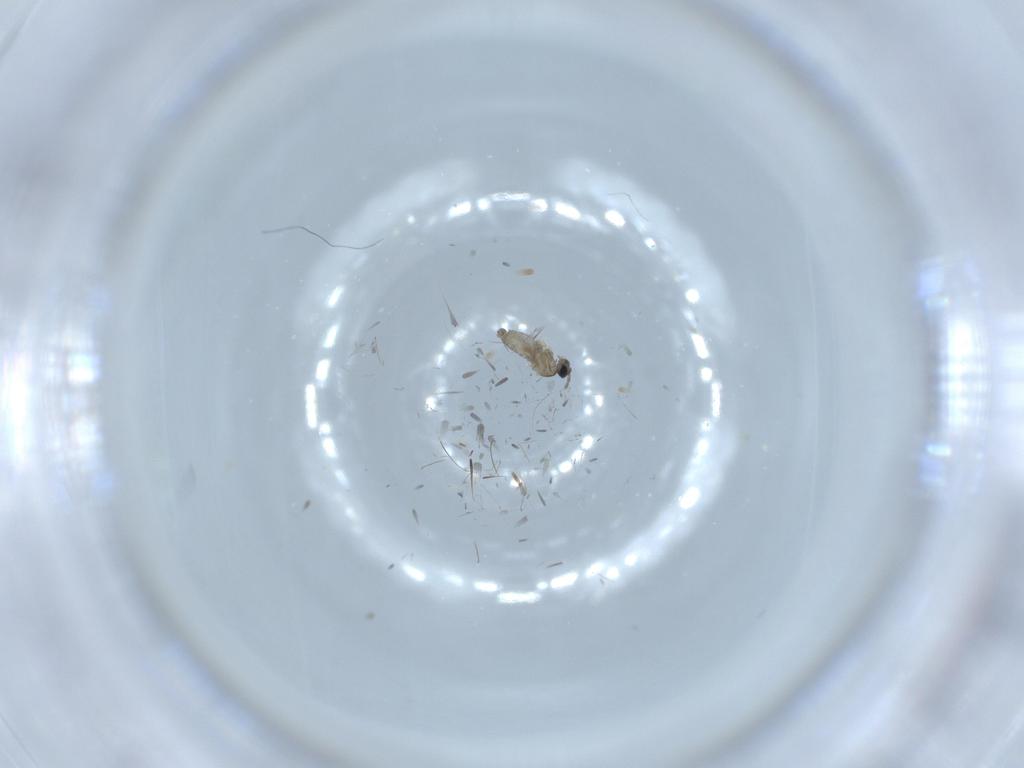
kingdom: Animalia
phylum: Arthropoda
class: Insecta
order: Diptera
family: Cecidomyiidae
